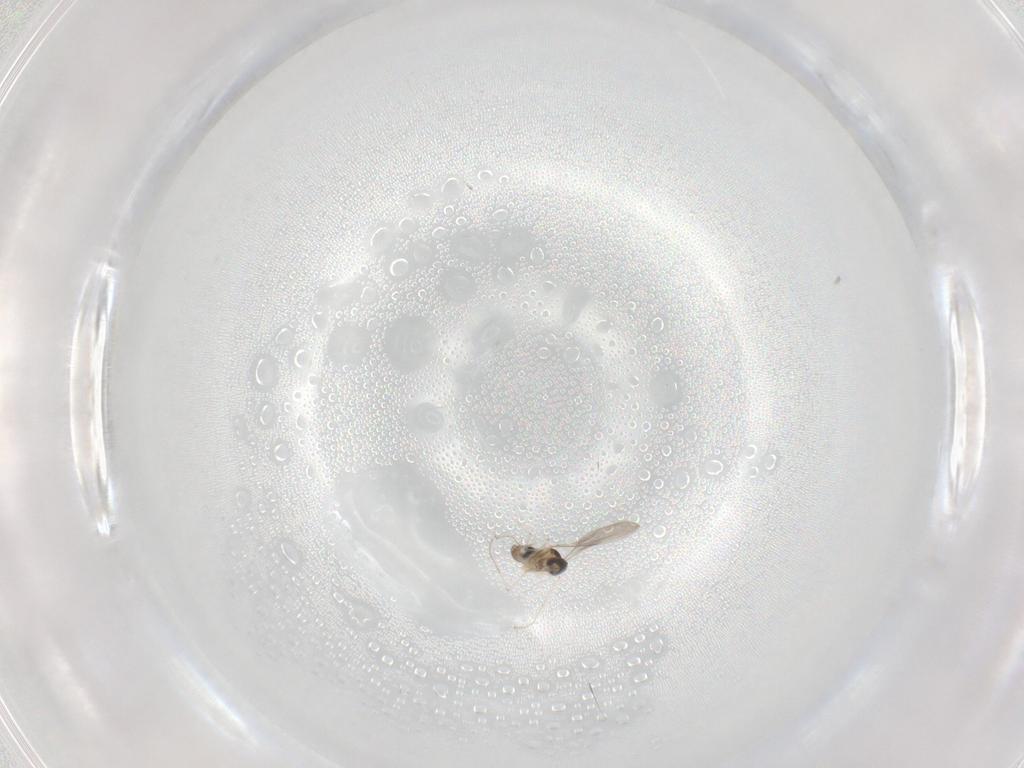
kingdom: Animalia
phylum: Arthropoda
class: Insecta
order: Diptera
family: Cecidomyiidae
